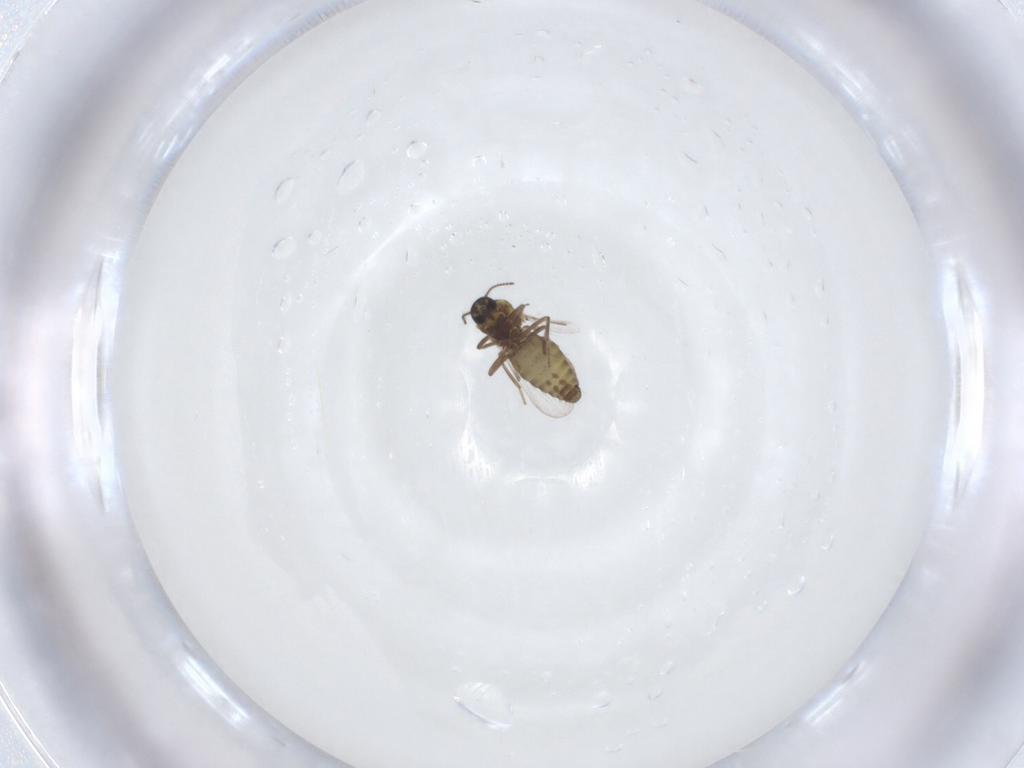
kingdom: Animalia
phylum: Arthropoda
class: Insecta
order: Diptera
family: Ceratopogonidae
